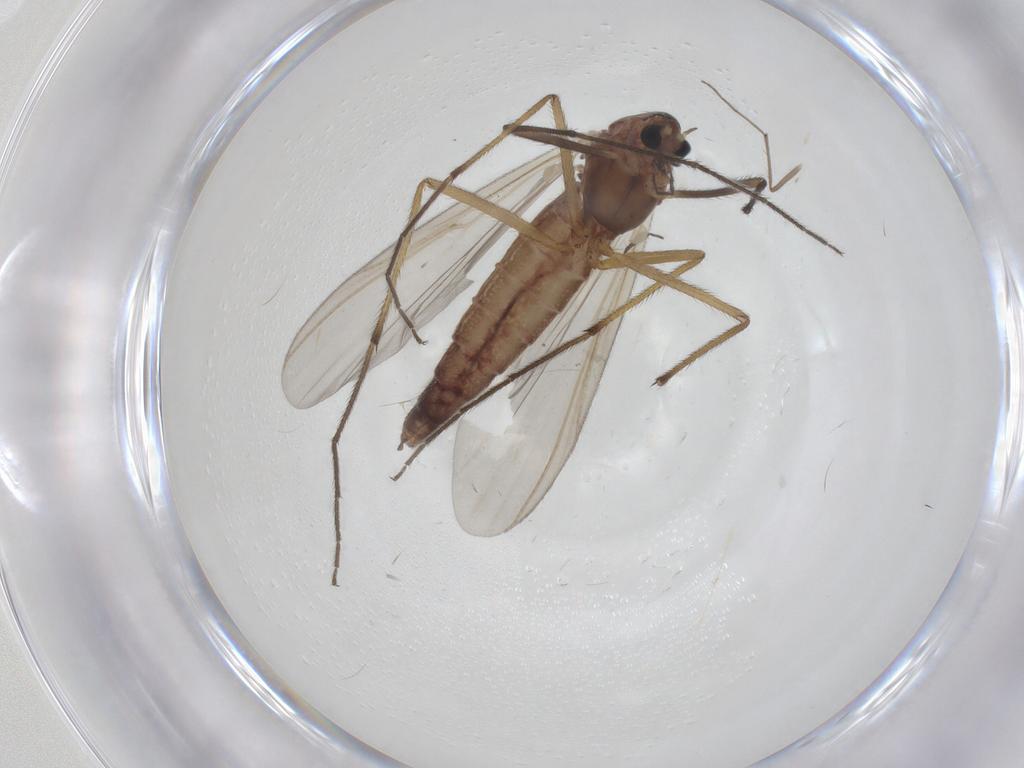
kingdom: Animalia
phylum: Arthropoda
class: Insecta
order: Diptera
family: Chironomidae
